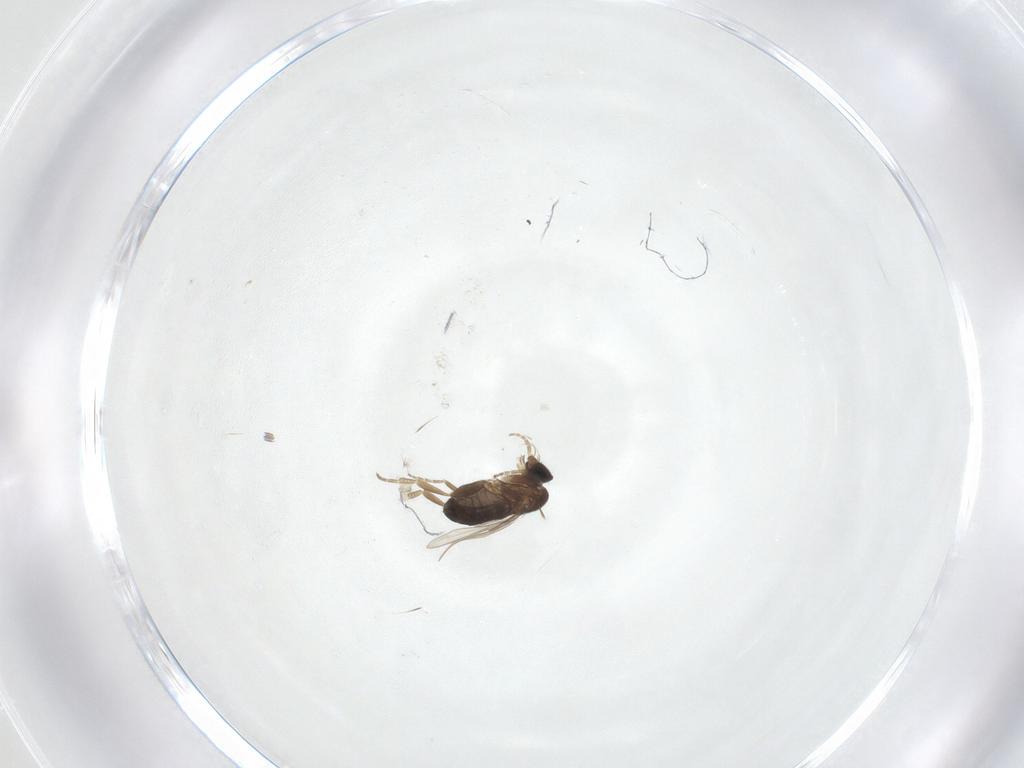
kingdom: Animalia
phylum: Arthropoda
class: Insecta
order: Diptera
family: Phoridae
